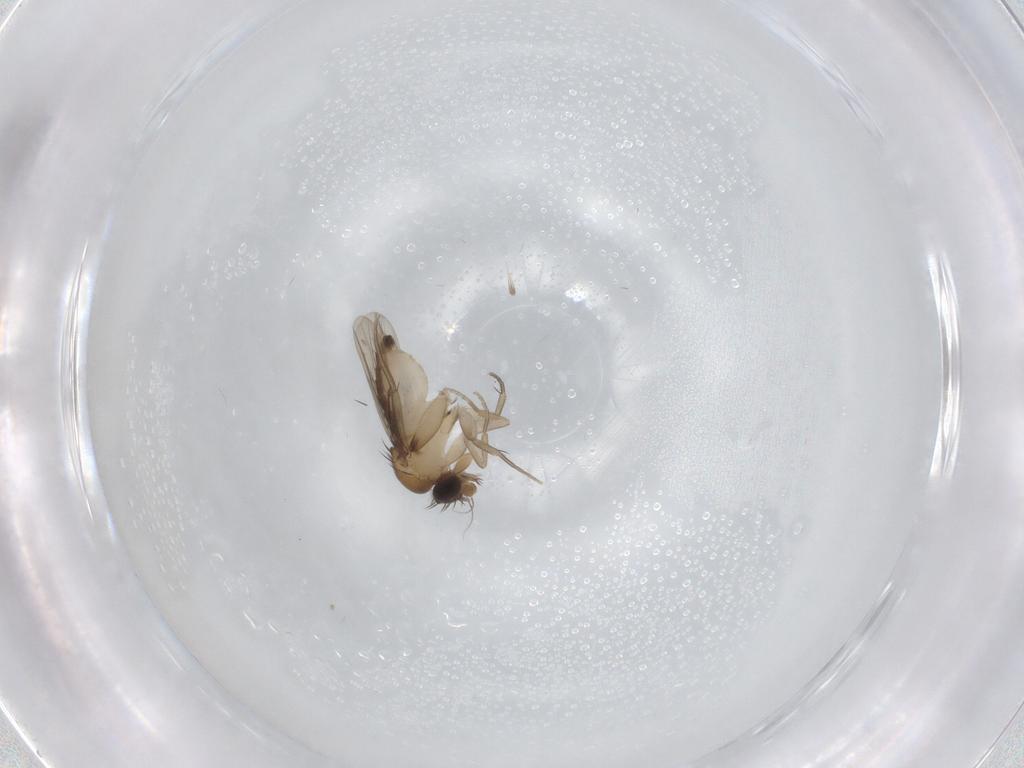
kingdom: Animalia
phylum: Arthropoda
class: Insecta
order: Diptera
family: Phoridae
